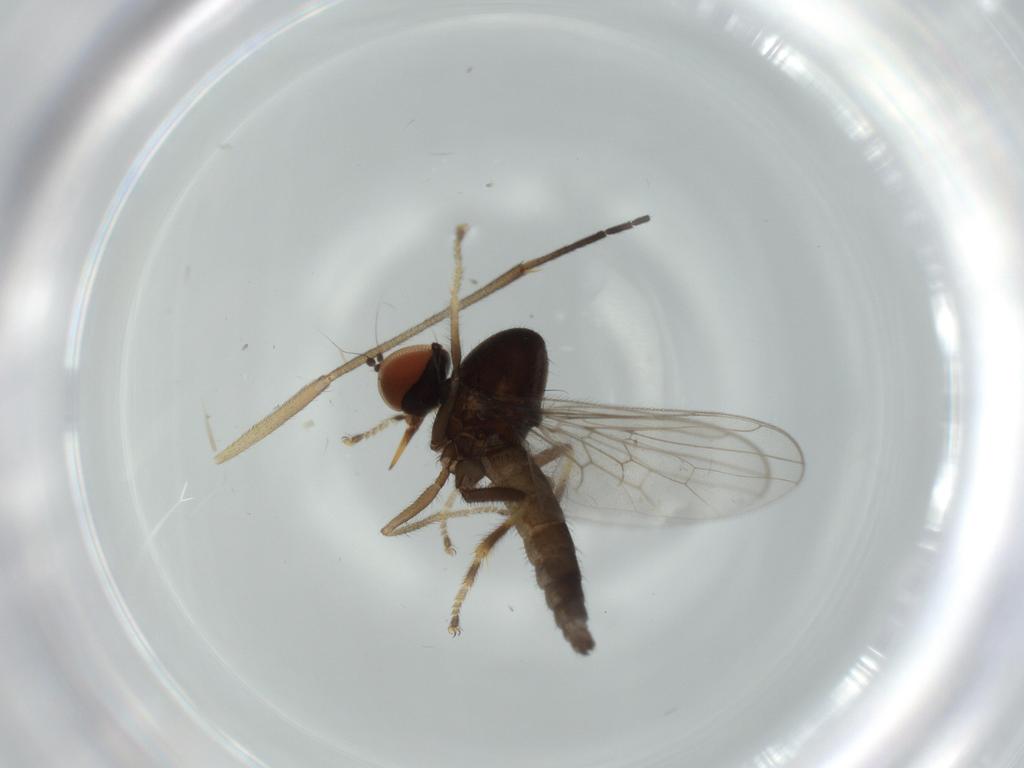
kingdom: Animalia
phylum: Arthropoda
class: Insecta
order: Diptera
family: Hybotidae
